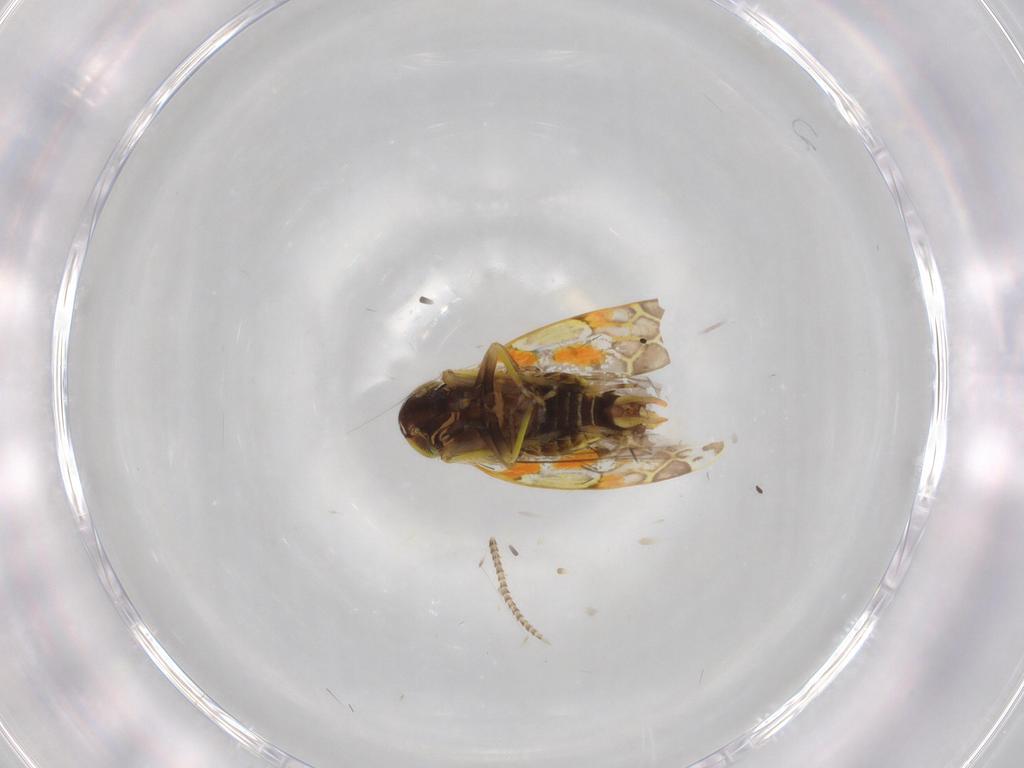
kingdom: Animalia
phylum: Arthropoda
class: Insecta
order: Hemiptera
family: Cicadellidae
